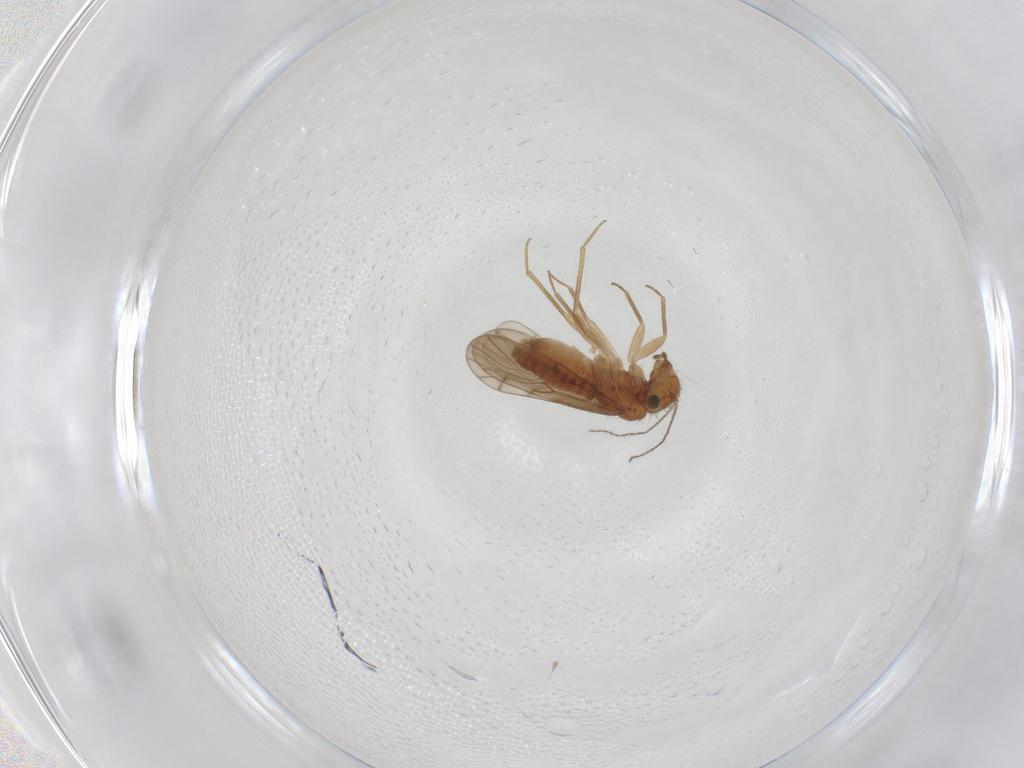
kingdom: Animalia
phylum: Arthropoda
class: Insecta
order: Psocodea
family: Ectopsocidae
